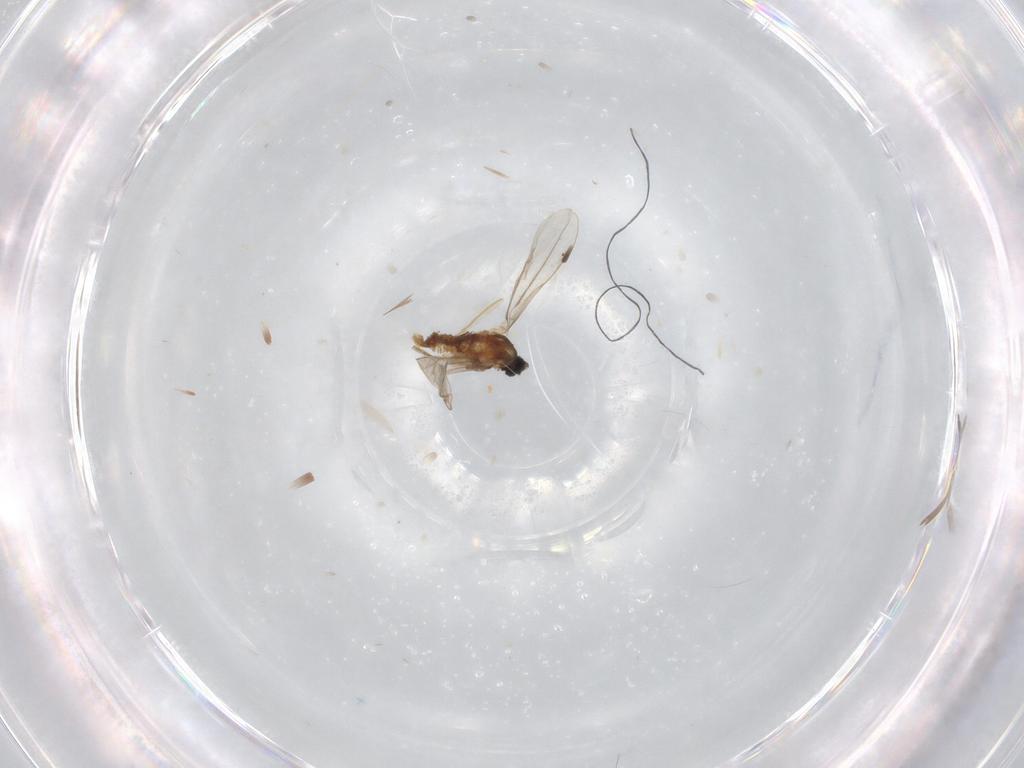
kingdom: Animalia
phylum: Arthropoda
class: Insecta
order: Diptera
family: Cecidomyiidae
